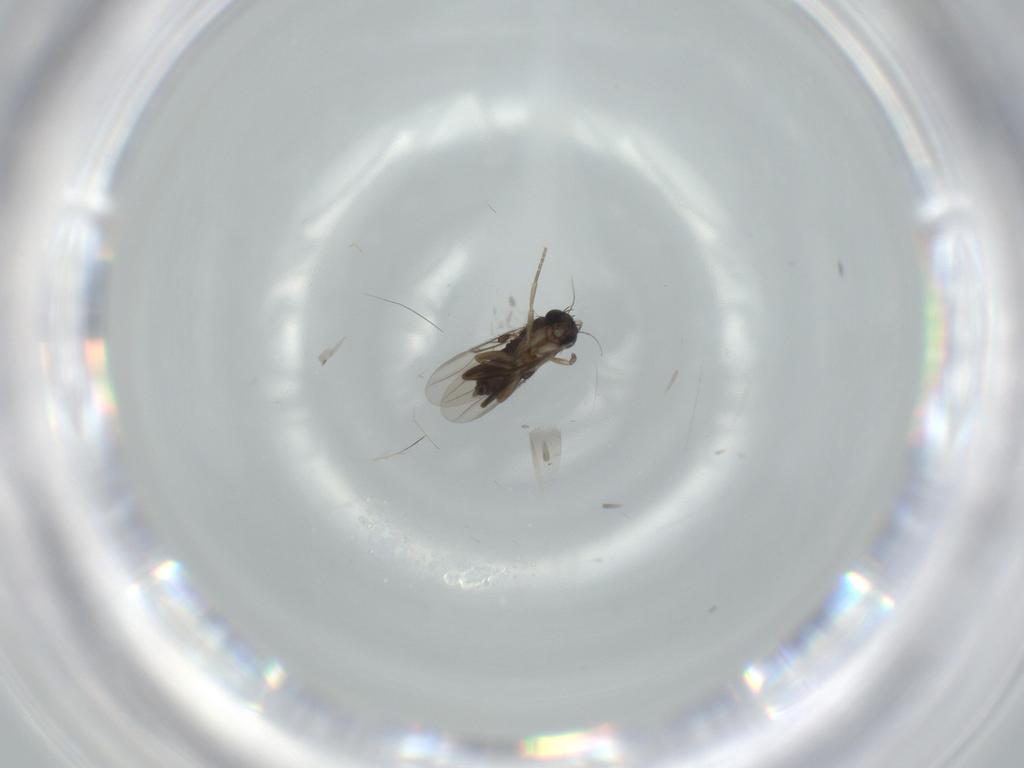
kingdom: Animalia
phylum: Arthropoda
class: Insecta
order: Diptera
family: Phoridae
